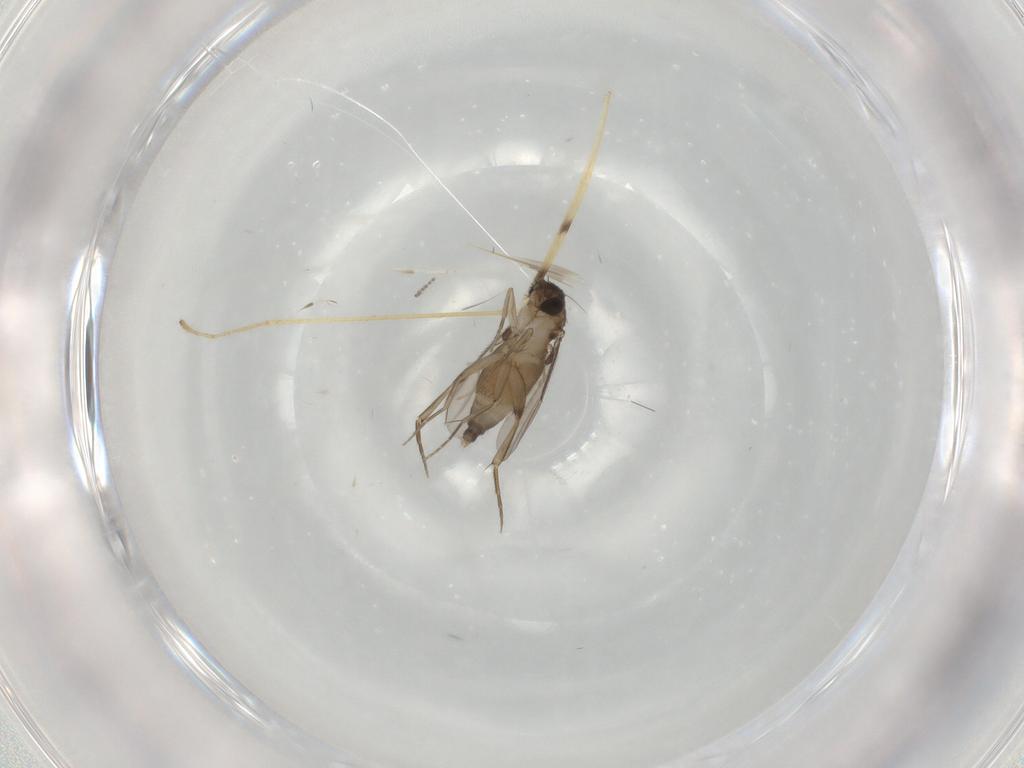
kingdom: Animalia
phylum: Arthropoda
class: Insecta
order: Diptera
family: Phoridae
